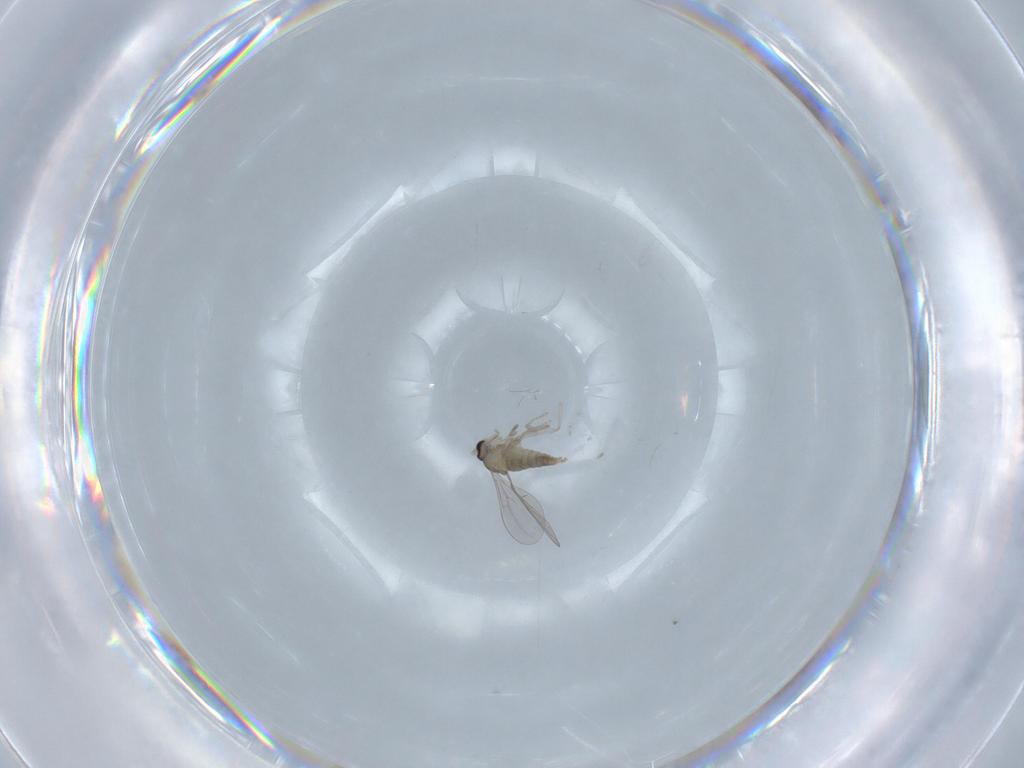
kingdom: Animalia
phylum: Arthropoda
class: Insecta
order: Diptera
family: Cecidomyiidae
